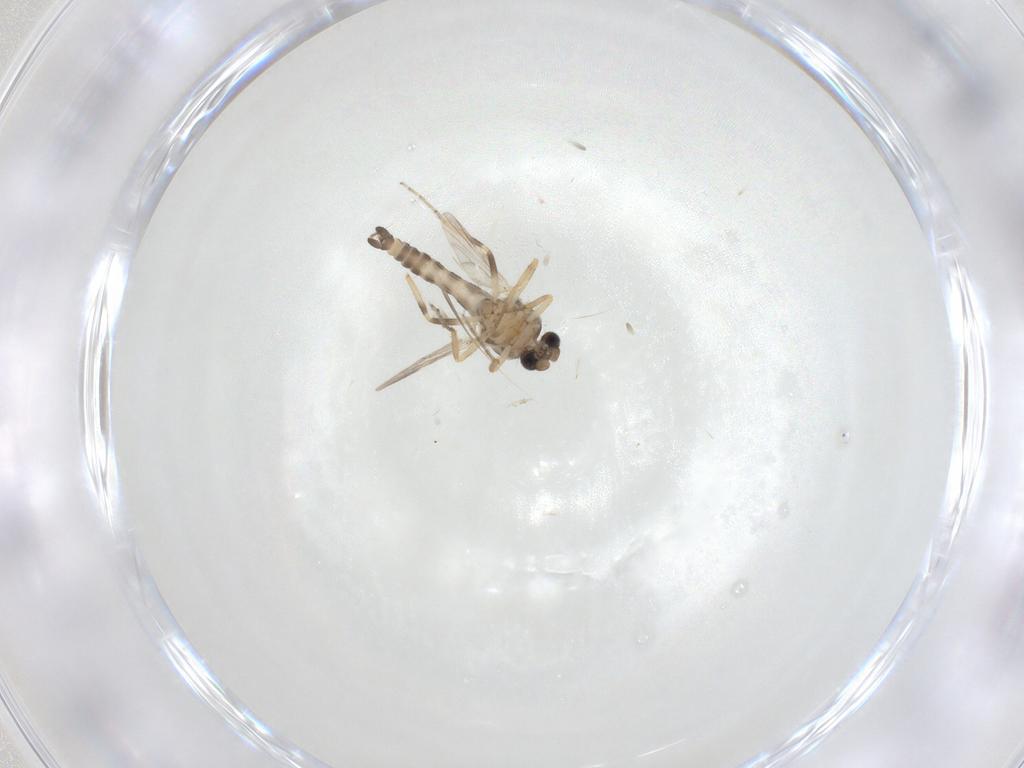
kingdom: Animalia
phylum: Arthropoda
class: Insecta
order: Diptera
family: Ceratopogonidae
